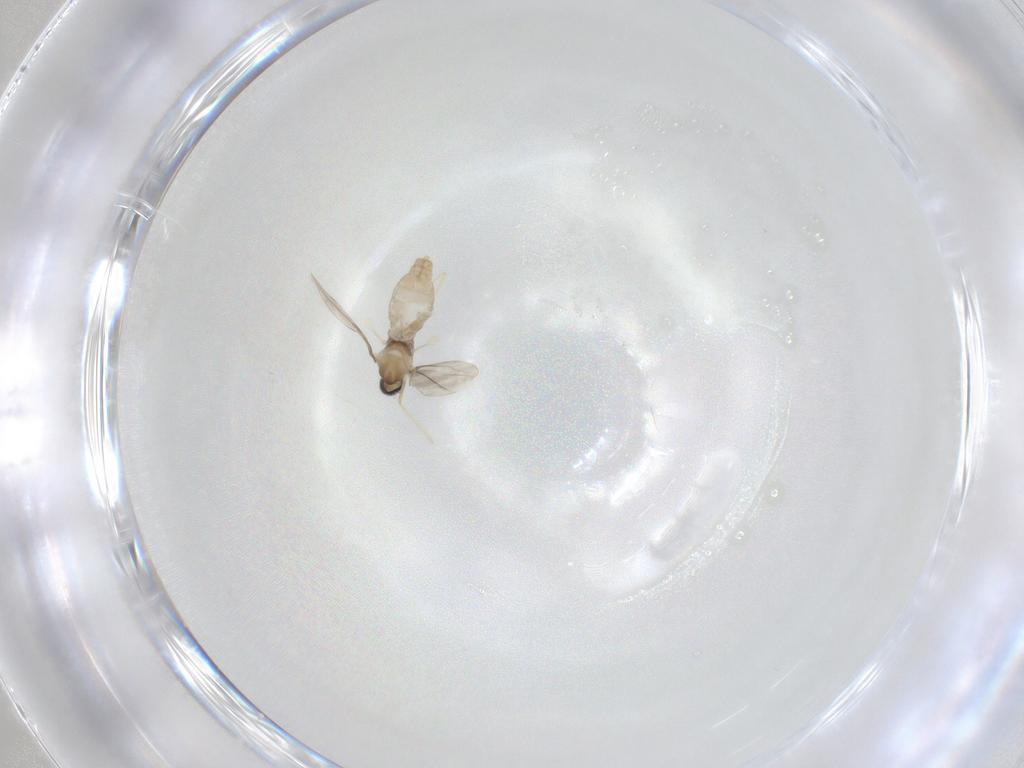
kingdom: Animalia
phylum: Arthropoda
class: Insecta
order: Diptera
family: Cecidomyiidae
